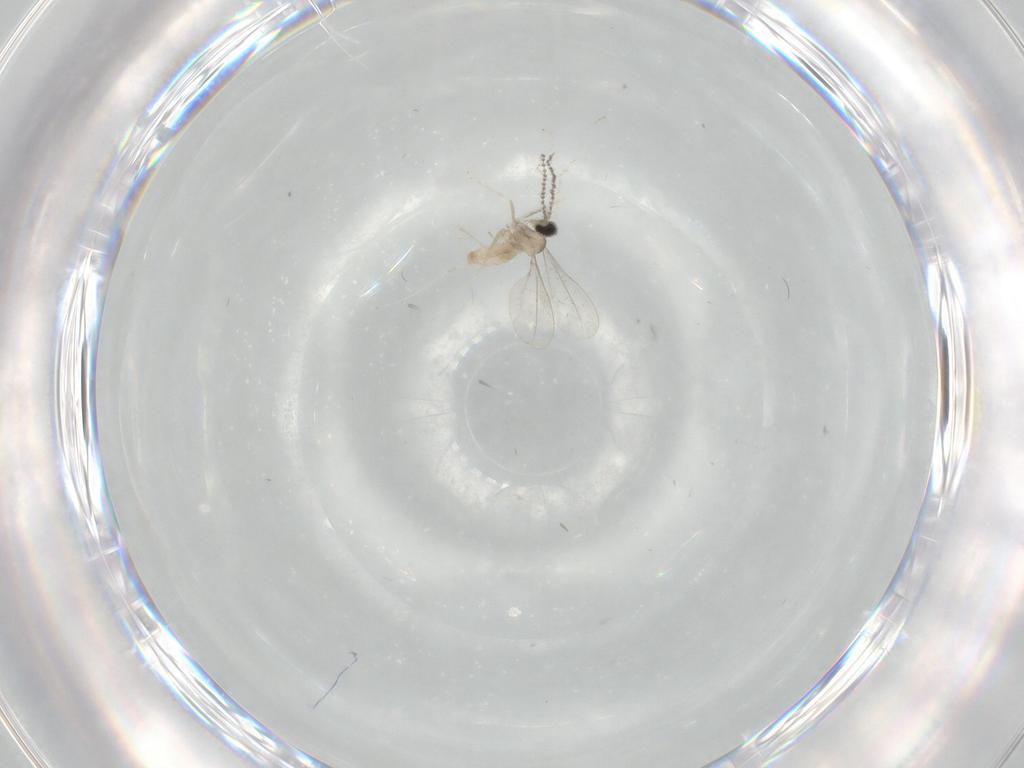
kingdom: Animalia
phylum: Arthropoda
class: Insecta
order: Diptera
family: Cecidomyiidae
